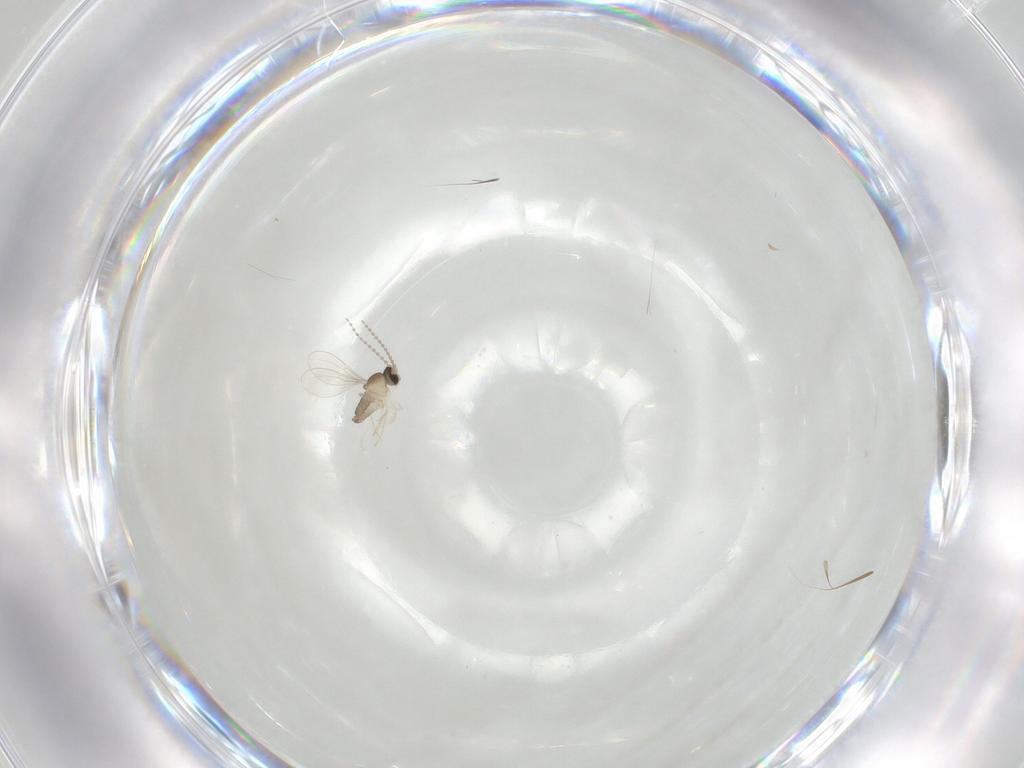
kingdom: Animalia
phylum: Arthropoda
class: Insecta
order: Diptera
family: Cecidomyiidae
